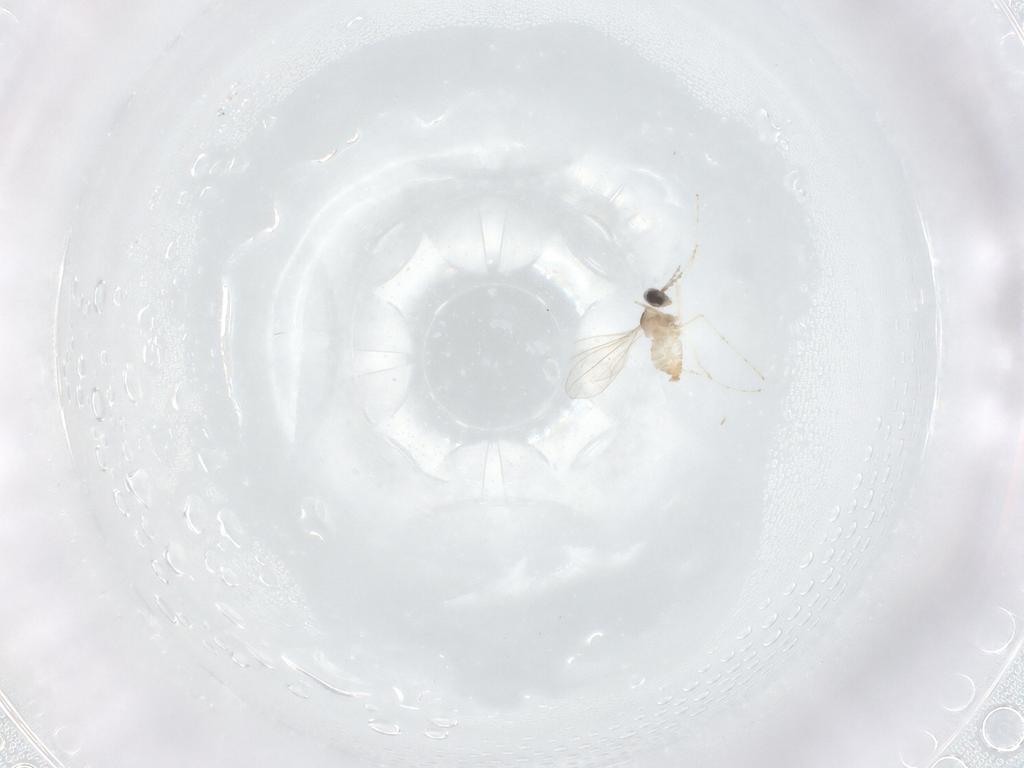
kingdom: Animalia
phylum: Arthropoda
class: Insecta
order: Diptera
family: Cecidomyiidae
